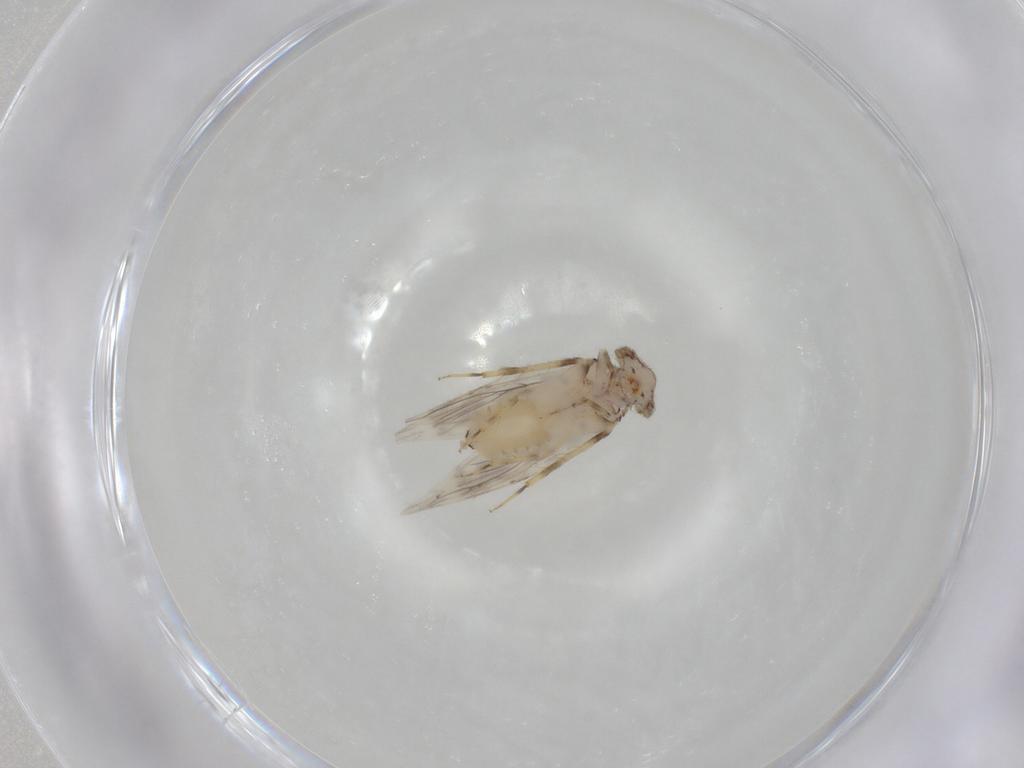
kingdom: Animalia
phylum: Arthropoda
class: Insecta
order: Psocodea
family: Lepidopsocidae
